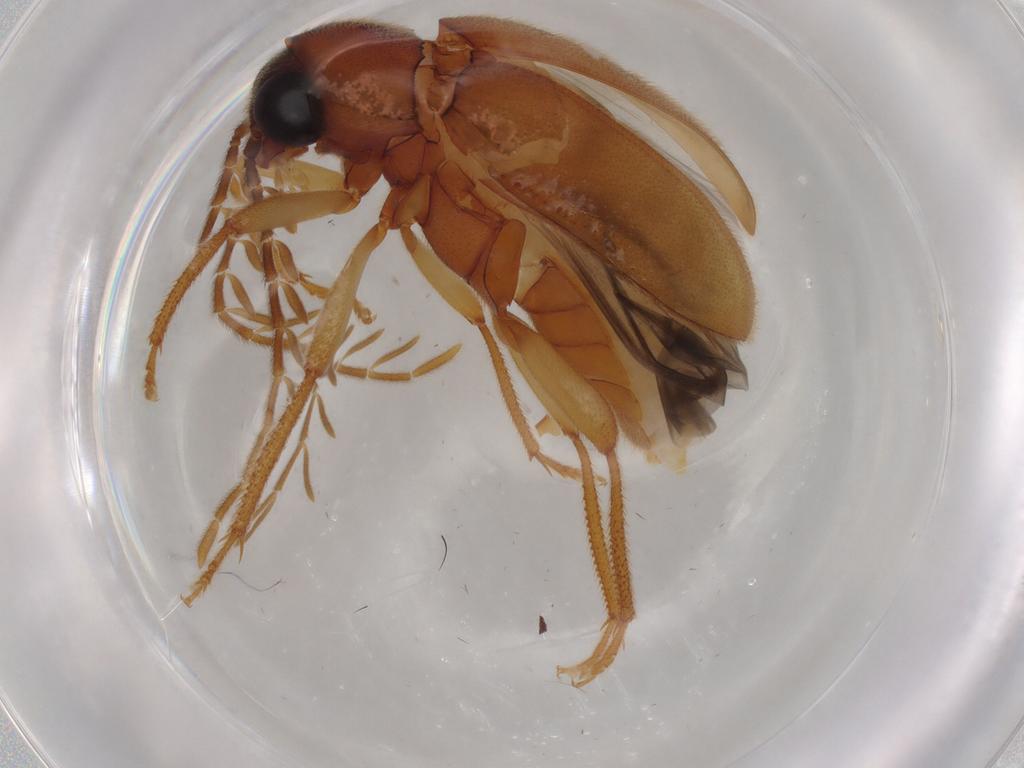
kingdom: Animalia
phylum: Arthropoda
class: Insecta
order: Coleoptera
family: Ptilodactylidae
